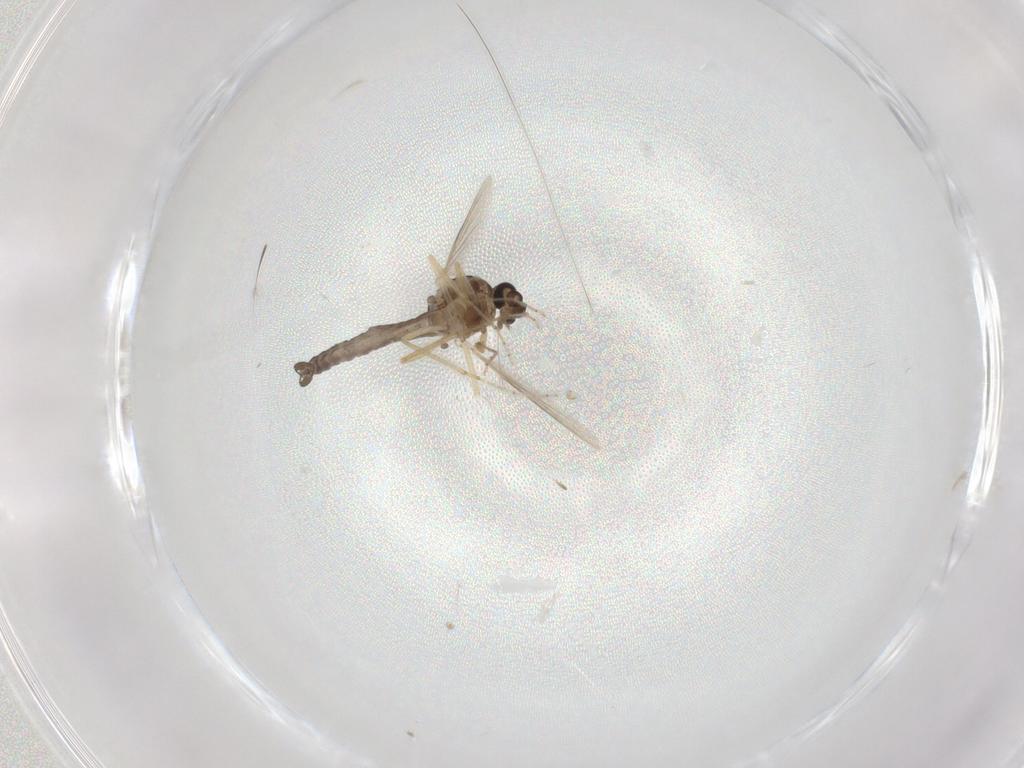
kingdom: Animalia
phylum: Arthropoda
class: Insecta
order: Diptera
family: Ceratopogonidae
